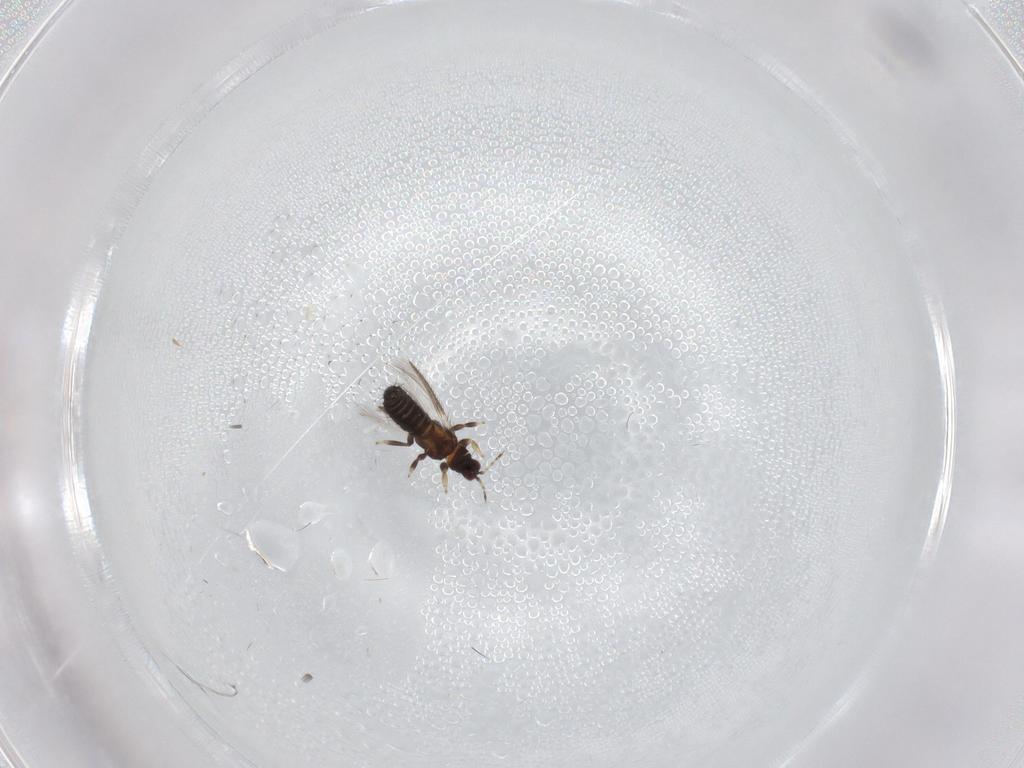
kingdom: Animalia
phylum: Arthropoda
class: Insecta
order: Thysanoptera
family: Thripidae
